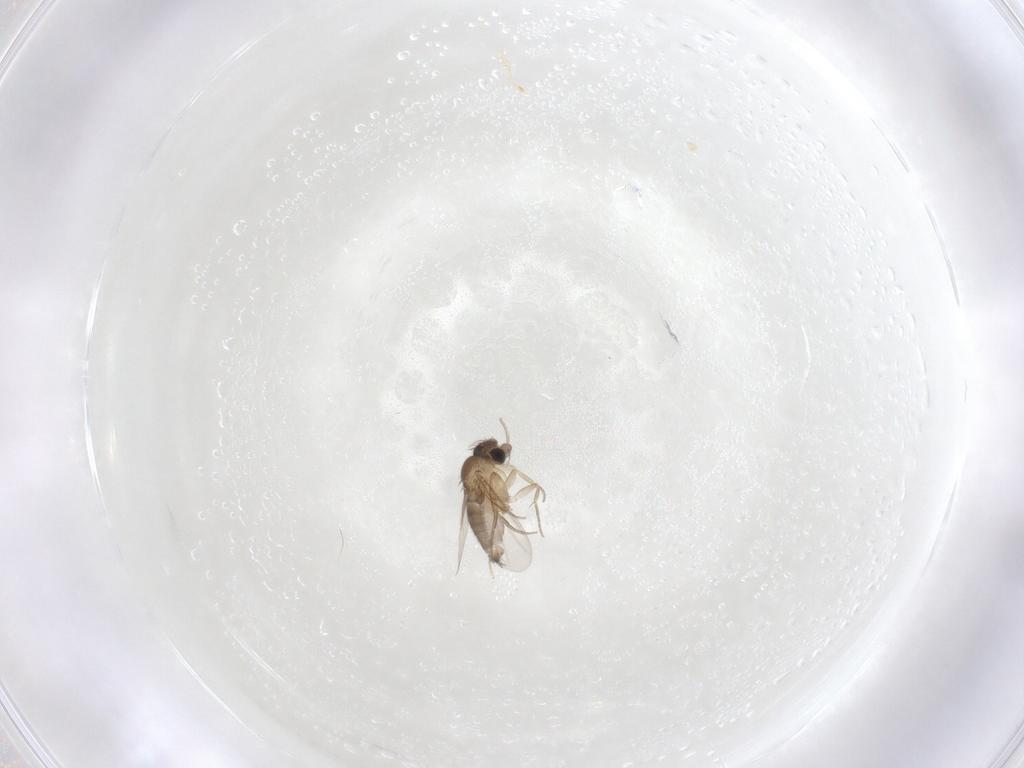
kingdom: Animalia
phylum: Arthropoda
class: Insecta
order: Diptera
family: Phoridae
